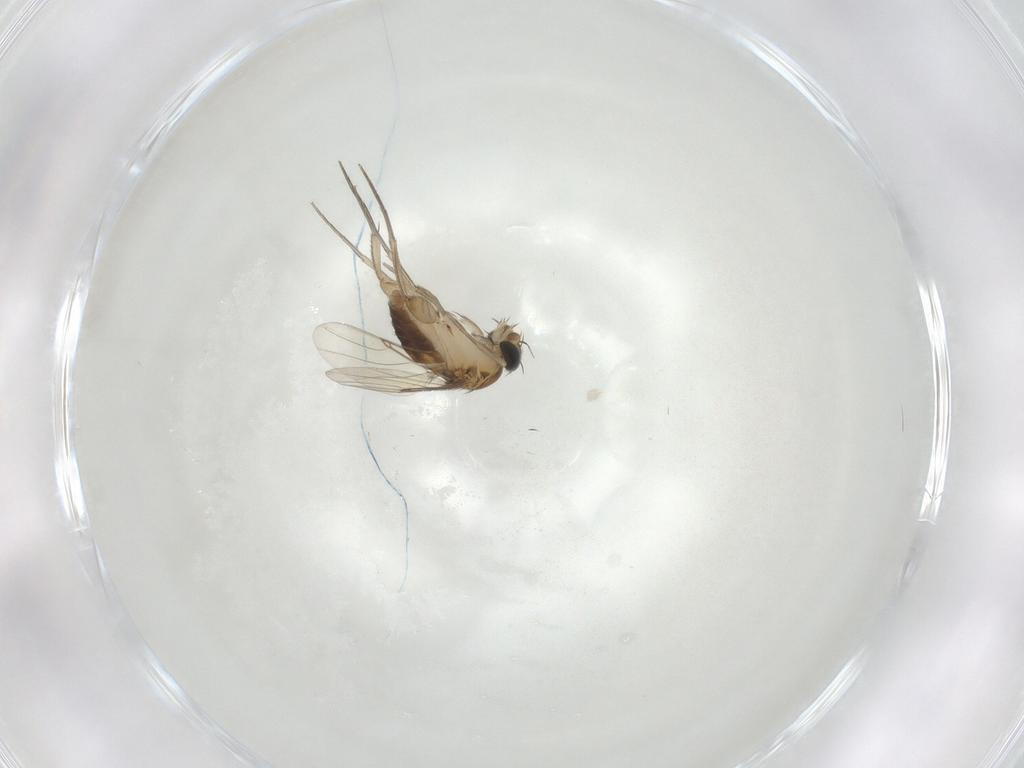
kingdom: Animalia
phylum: Arthropoda
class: Insecta
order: Diptera
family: Phoridae
